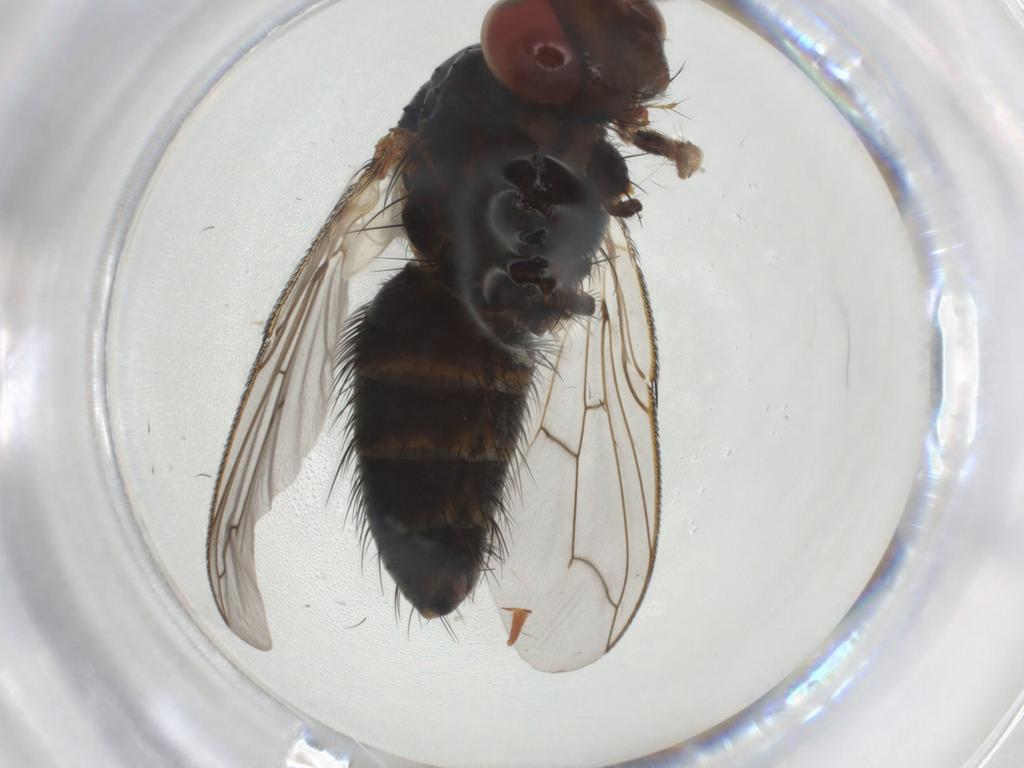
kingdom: Animalia
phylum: Arthropoda
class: Insecta
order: Diptera
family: Tachinidae
